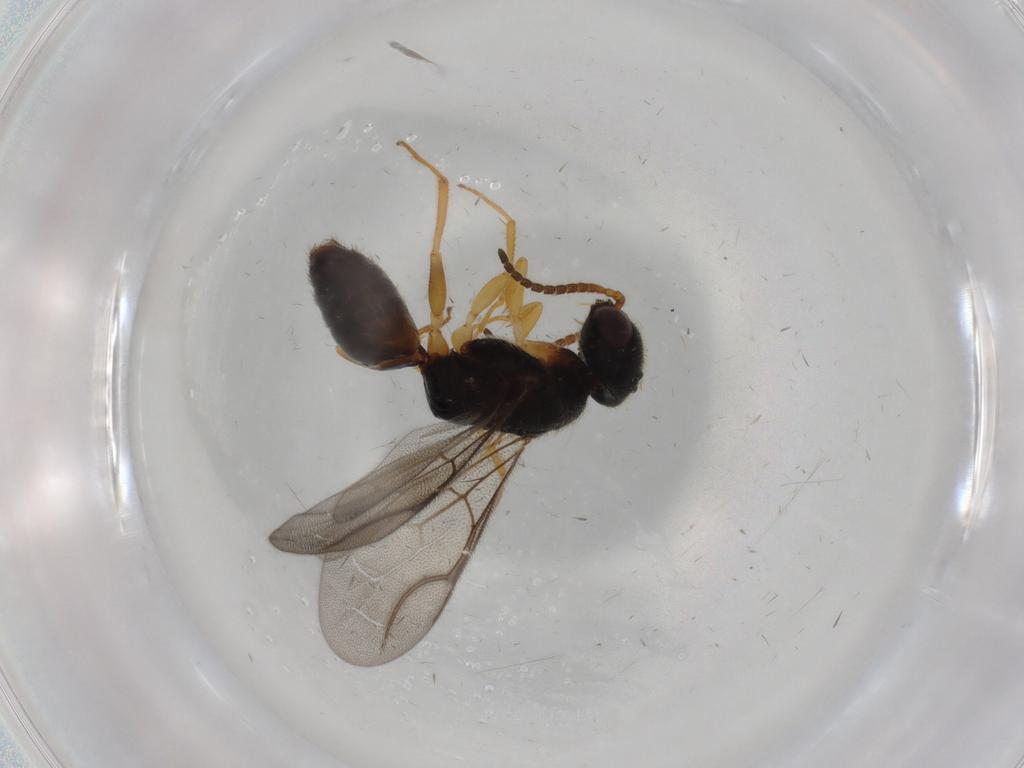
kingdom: Animalia
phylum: Arthropoda
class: Insecta
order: Hymenoptera
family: Bethylidae
